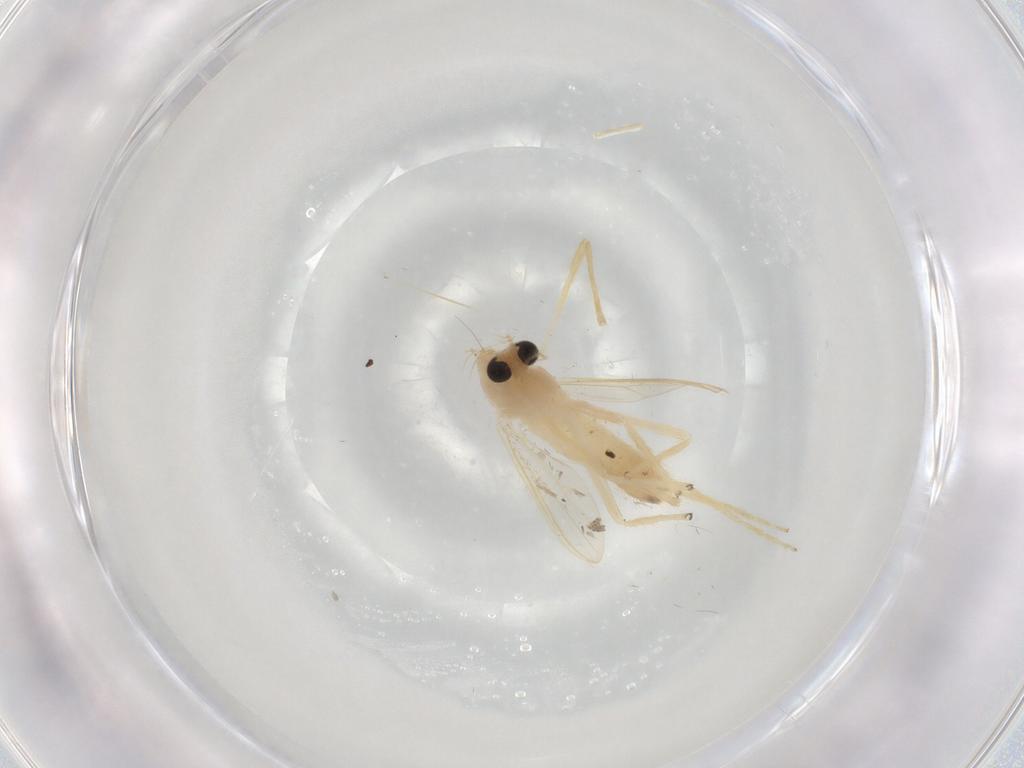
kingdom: Animalia
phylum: Arthropoda
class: Insecta
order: Diptera
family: Chironomidae
